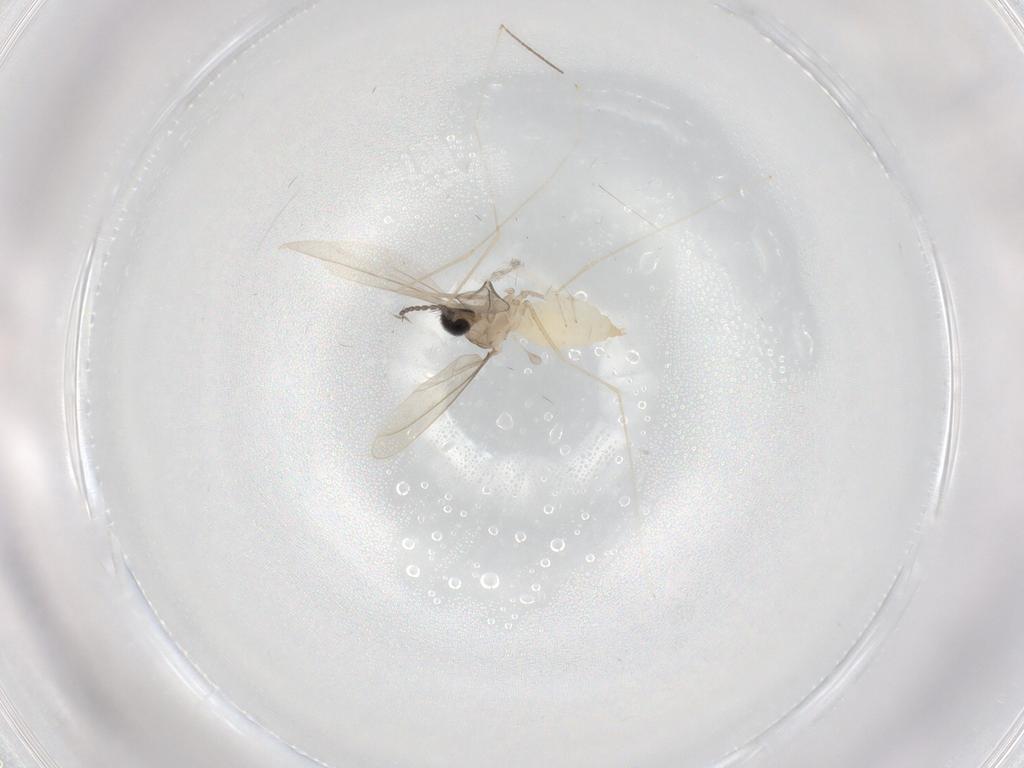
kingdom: Animalia
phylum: Arthropoda
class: Insecta
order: Diptera
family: Cecidomyiidae
